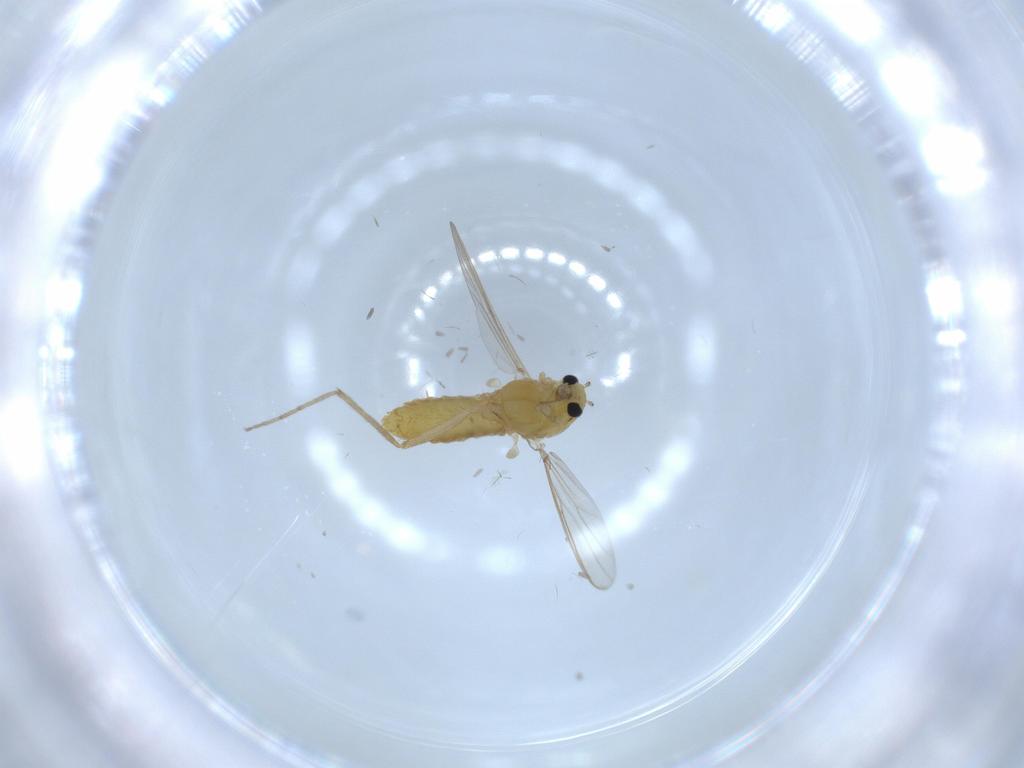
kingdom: Animalia
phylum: Arthropoda
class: Insecta
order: Diptera
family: Chironomidae
